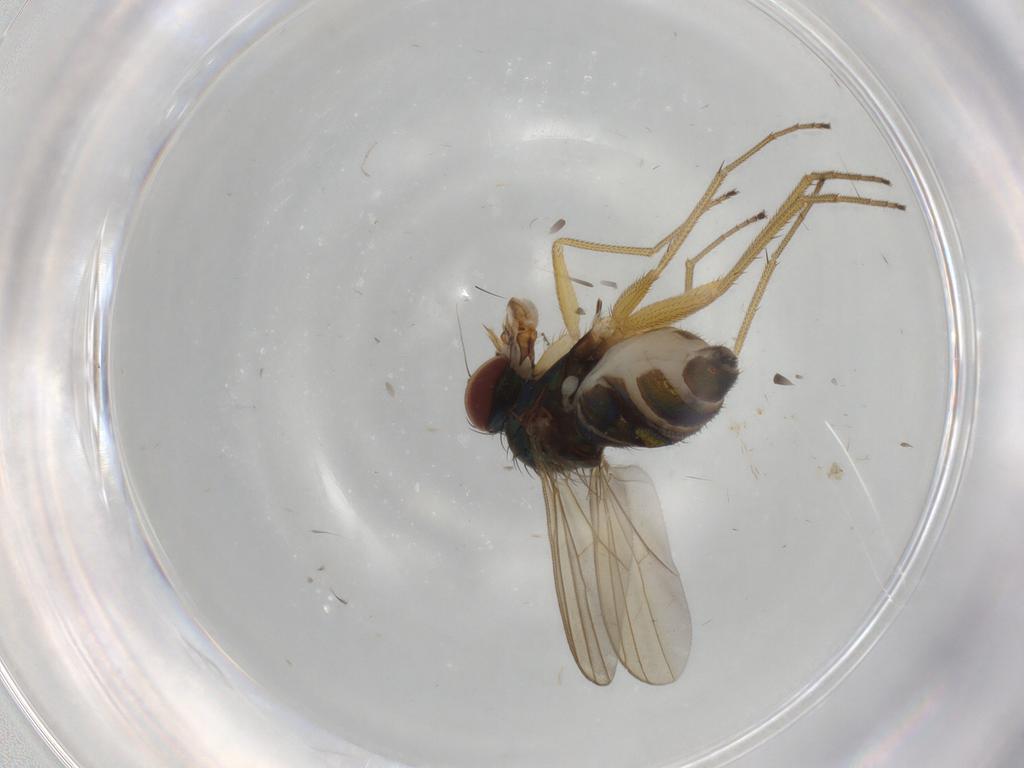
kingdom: Animalia
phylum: Arthropoda
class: Insecta
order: Diptera
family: Dolichopodidae
